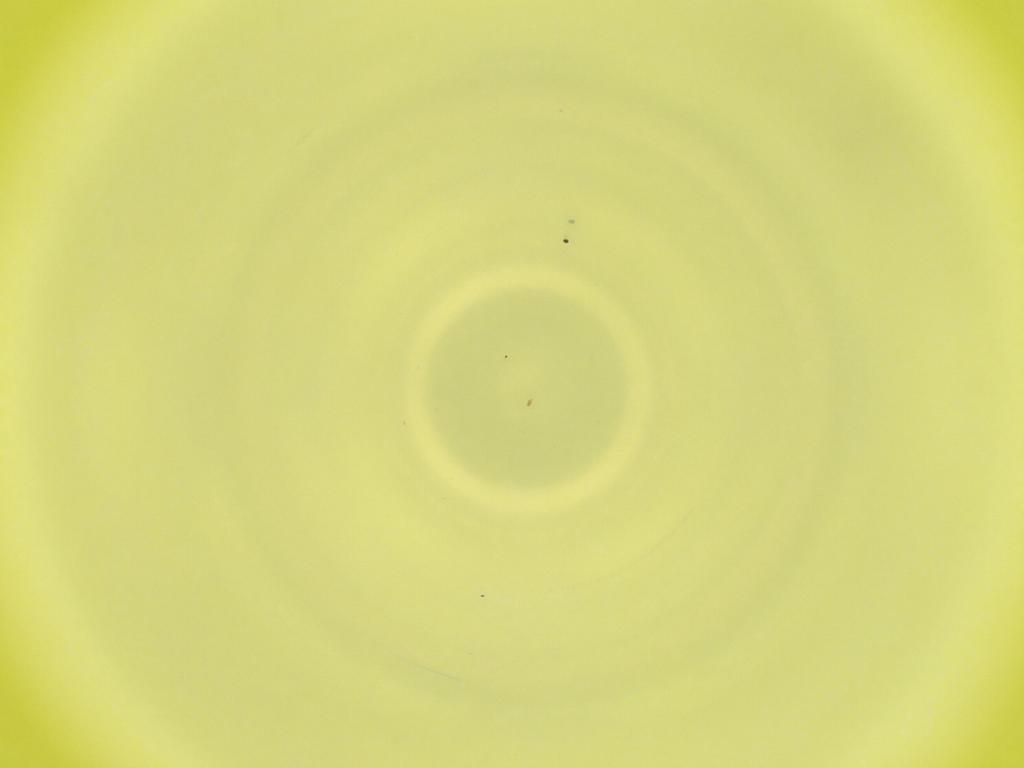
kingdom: Animalia
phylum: Arthropoda
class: Insecta
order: Diptera
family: Cecidomyiidae
